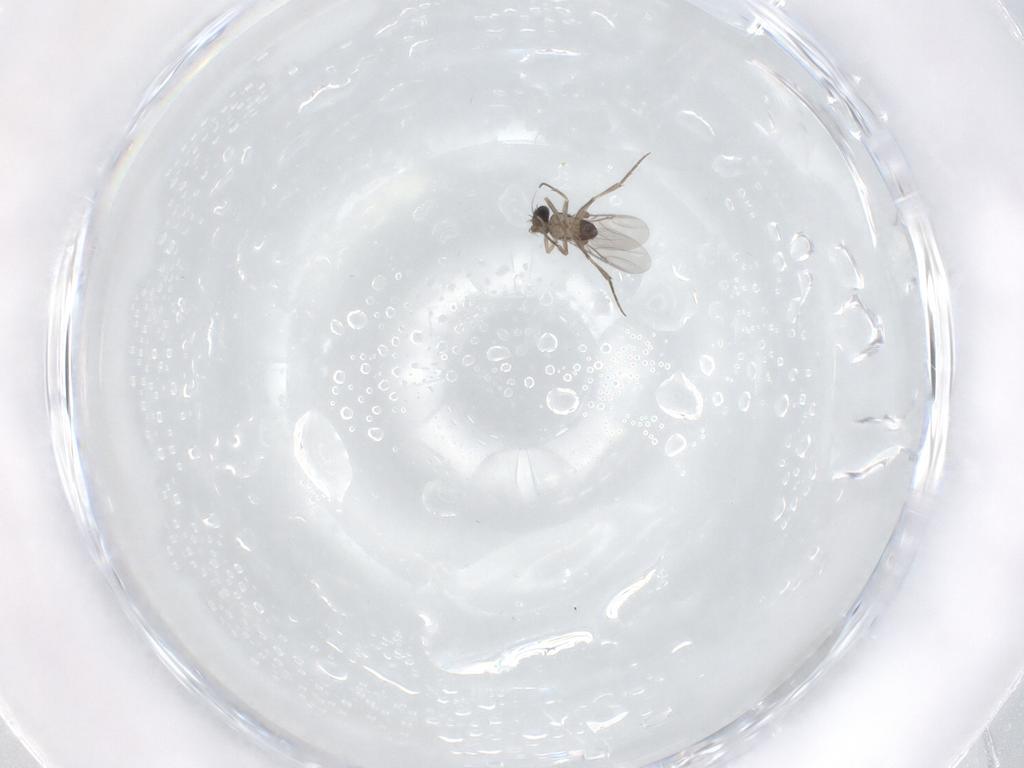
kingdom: Animalia
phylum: Arthropoda
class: Insecta
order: Diptera
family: Phoridae
